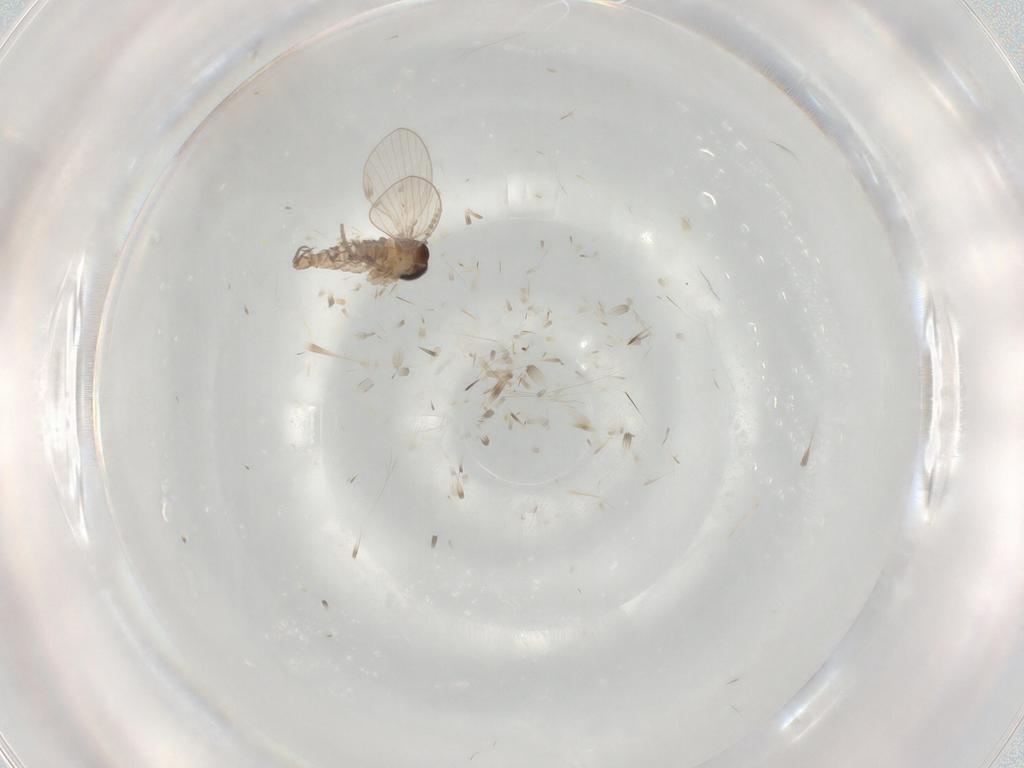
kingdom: Animalia
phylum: Arthropoda
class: Insecta
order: Diptera
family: Psychodidae
